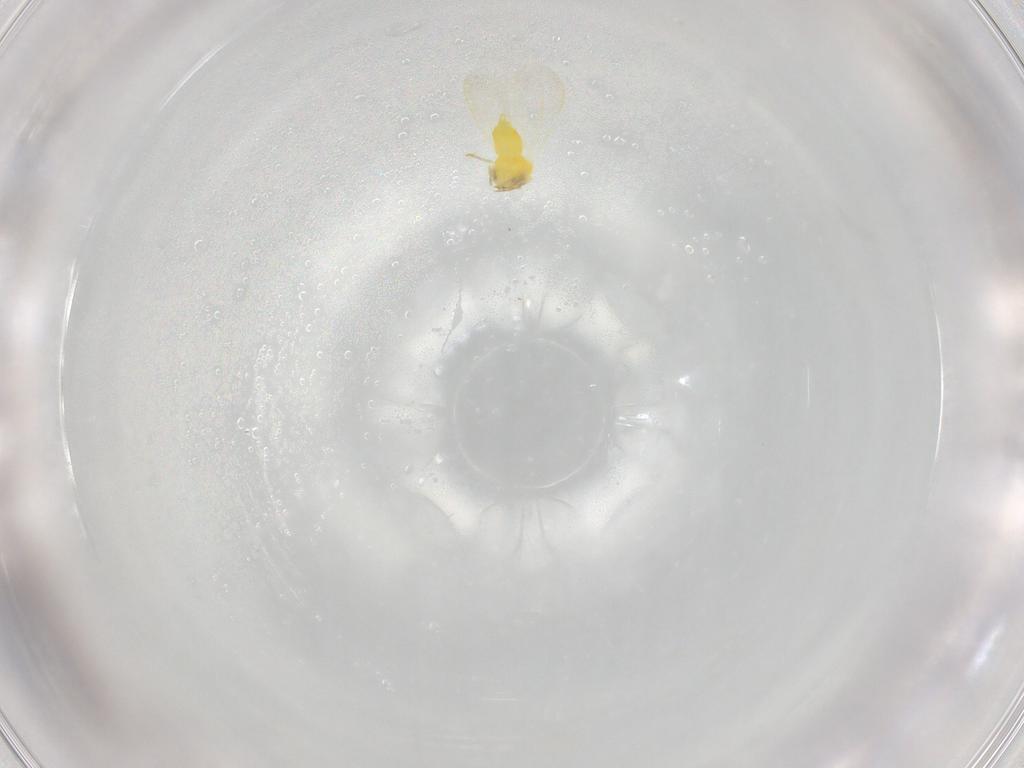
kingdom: Animalia
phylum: Arthropoda
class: Insecta
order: Hemiptera
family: Aleyrodidae
